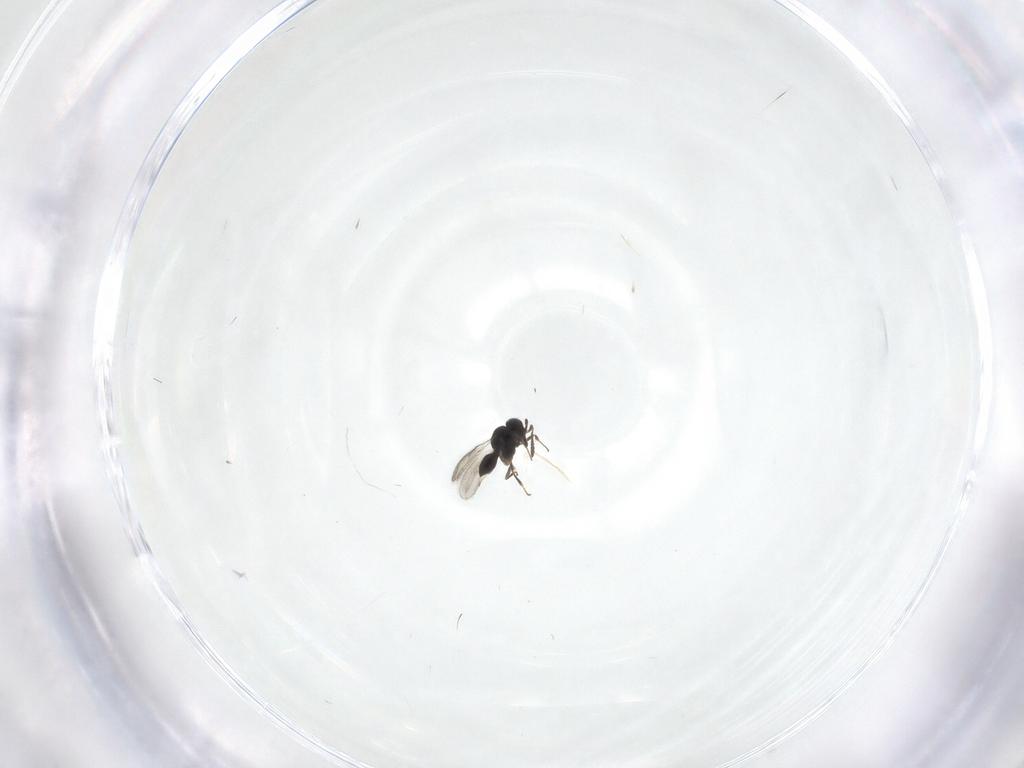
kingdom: Animalia
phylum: Arthropoda
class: Insecta
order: Hymenoptera
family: Scelionidae
